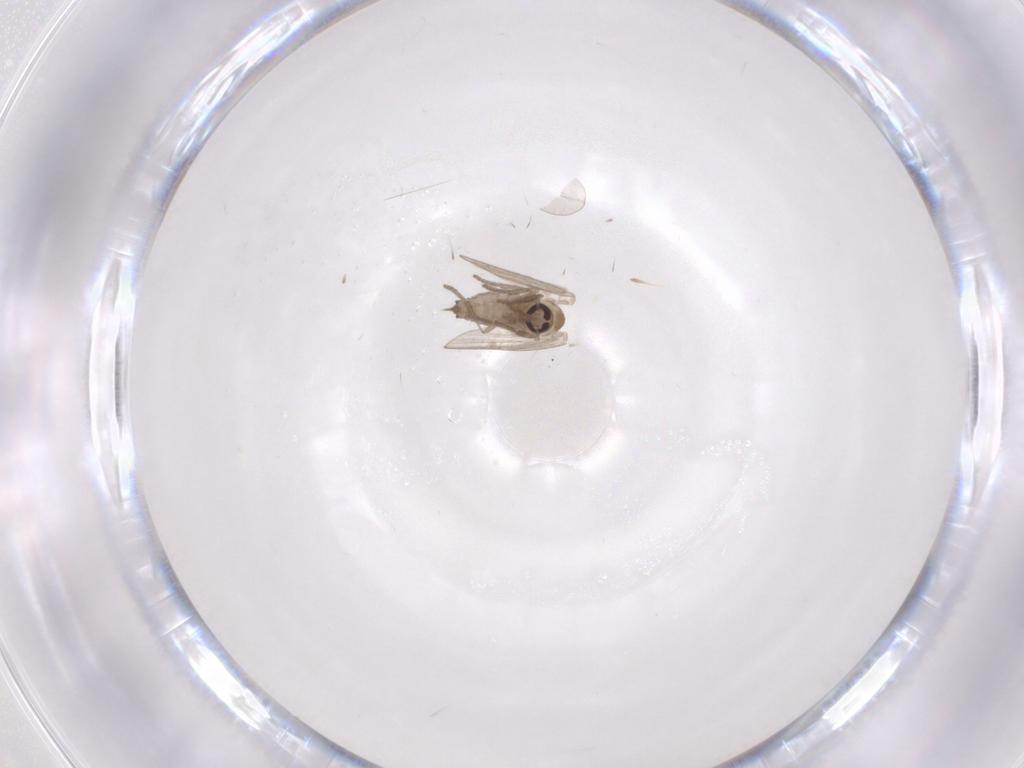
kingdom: Animalia
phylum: Arthropoda
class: Insecta
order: Diptera
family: Psychodidae
